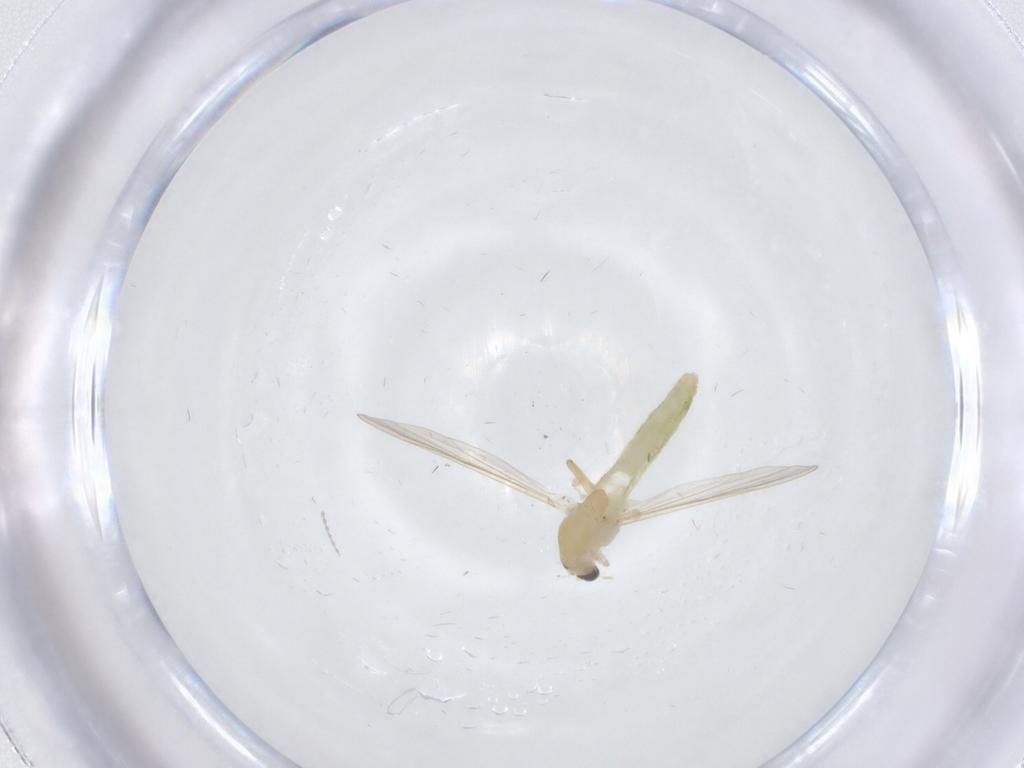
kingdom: Animalia
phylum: Arthropoda
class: Insecta
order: Diptera
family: Chironomidae
